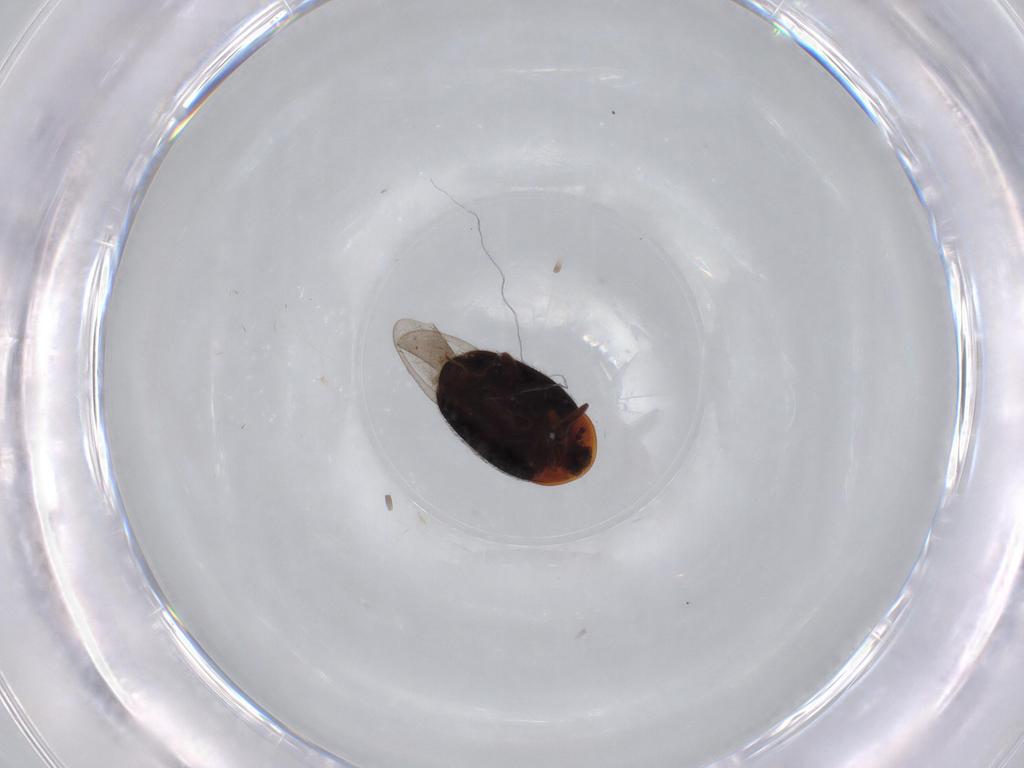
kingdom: Animalia
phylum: Arthropoda
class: Insecta
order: Coleoptera
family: Corylophidae
